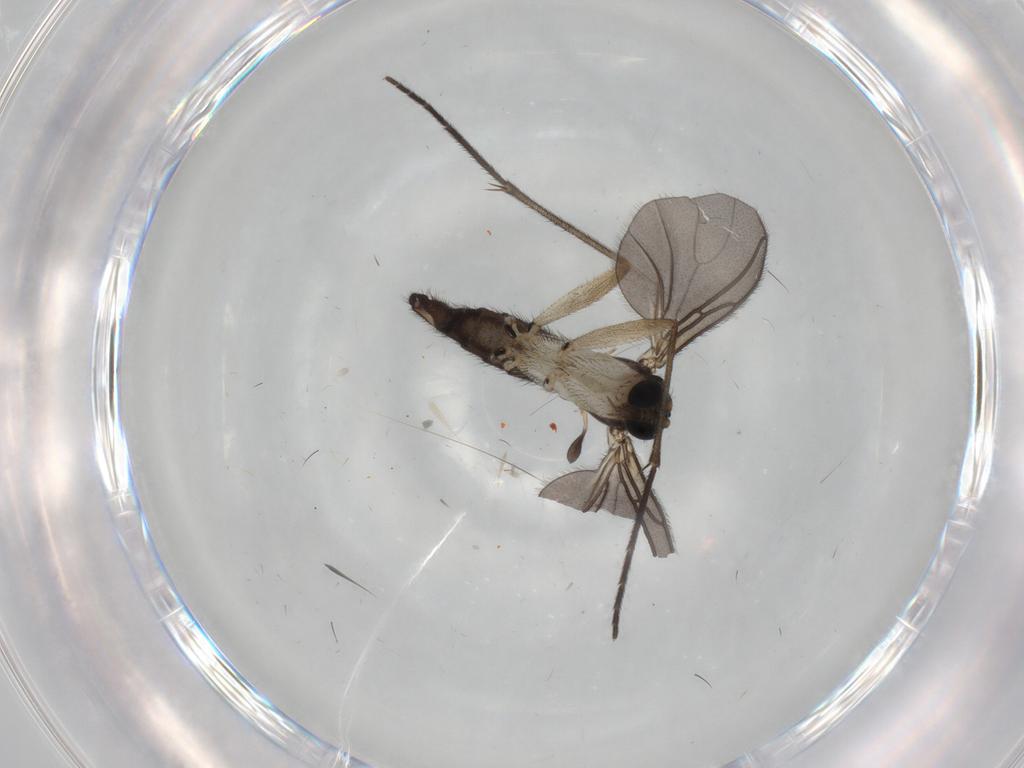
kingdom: Animalia
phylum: Arthropoda
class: Insecta
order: Diptera
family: Sciaridae
